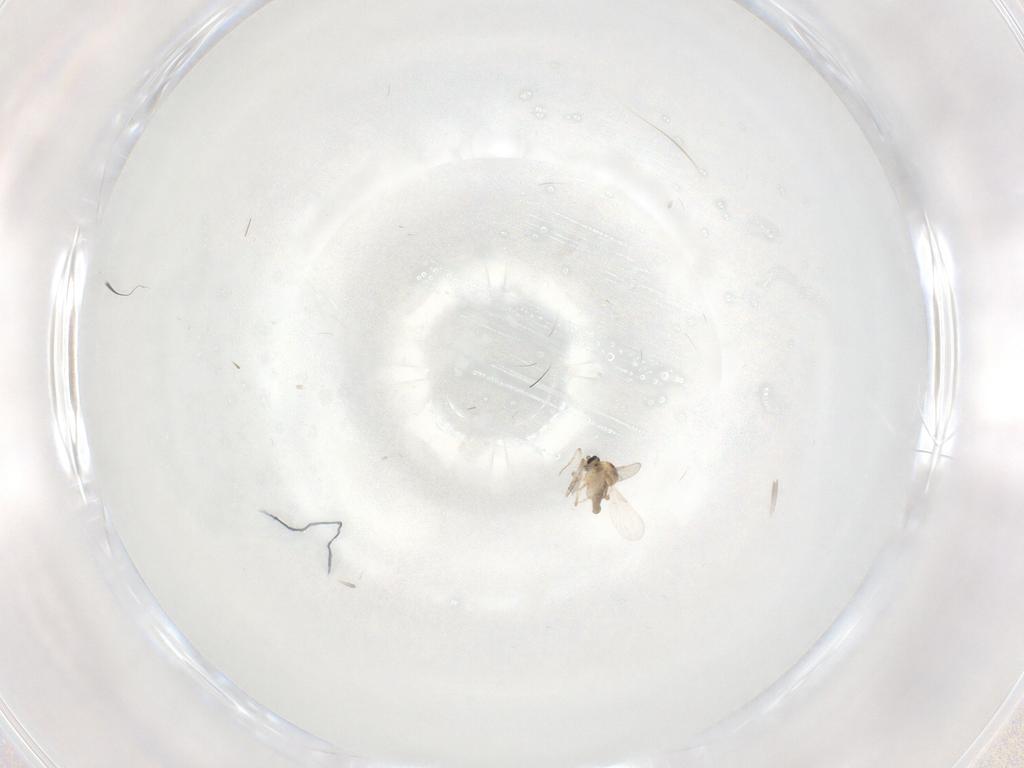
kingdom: Animalia
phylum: Arthropoda
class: Insecta
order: Diptera
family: Ceratopogonidae
